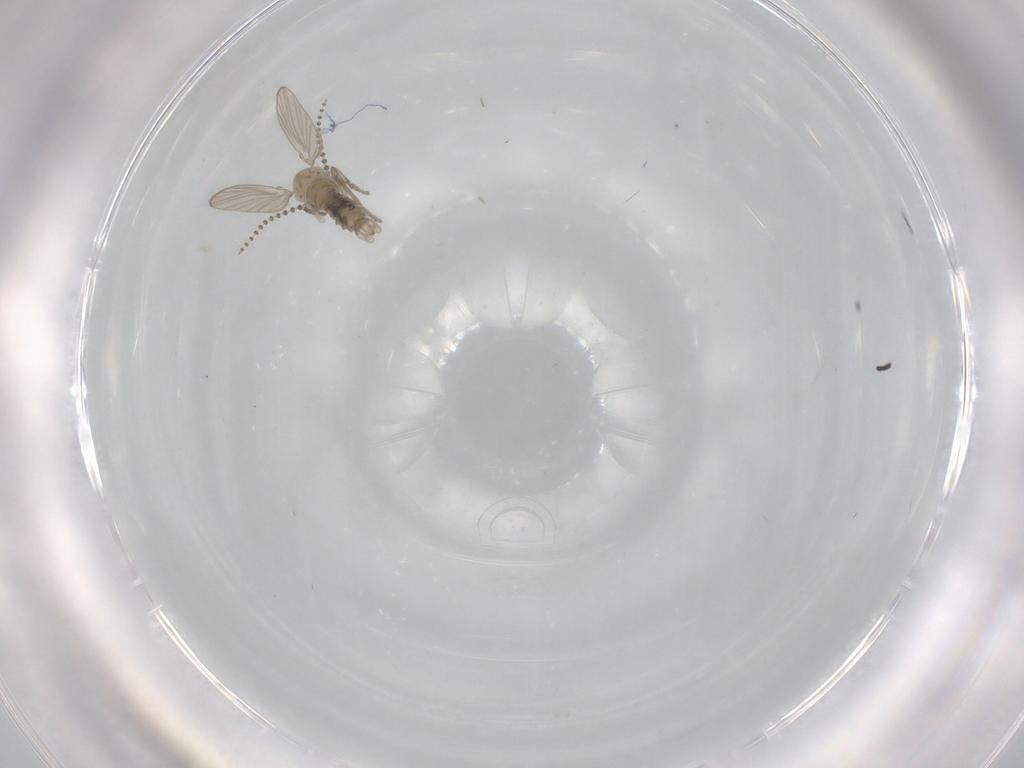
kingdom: Animalia
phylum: Arthropoda
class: Insecta
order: Diptera
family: Psychodidae
